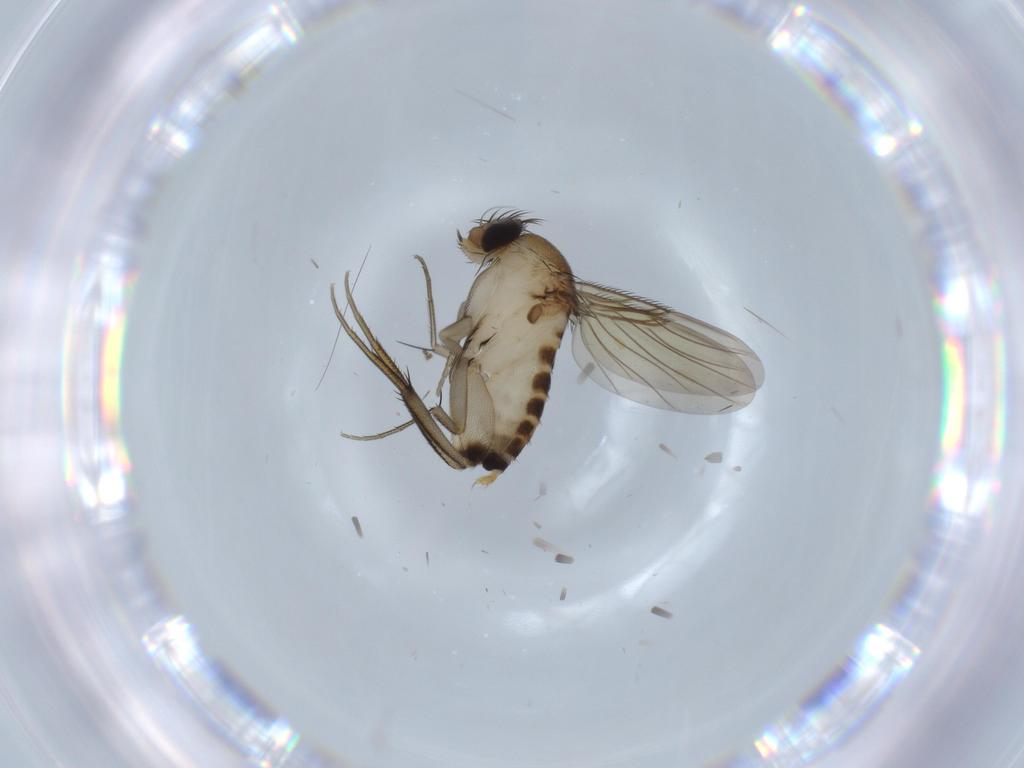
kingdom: Animalia
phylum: Arthropoda
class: Insecta
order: Diptera
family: Phoridae
